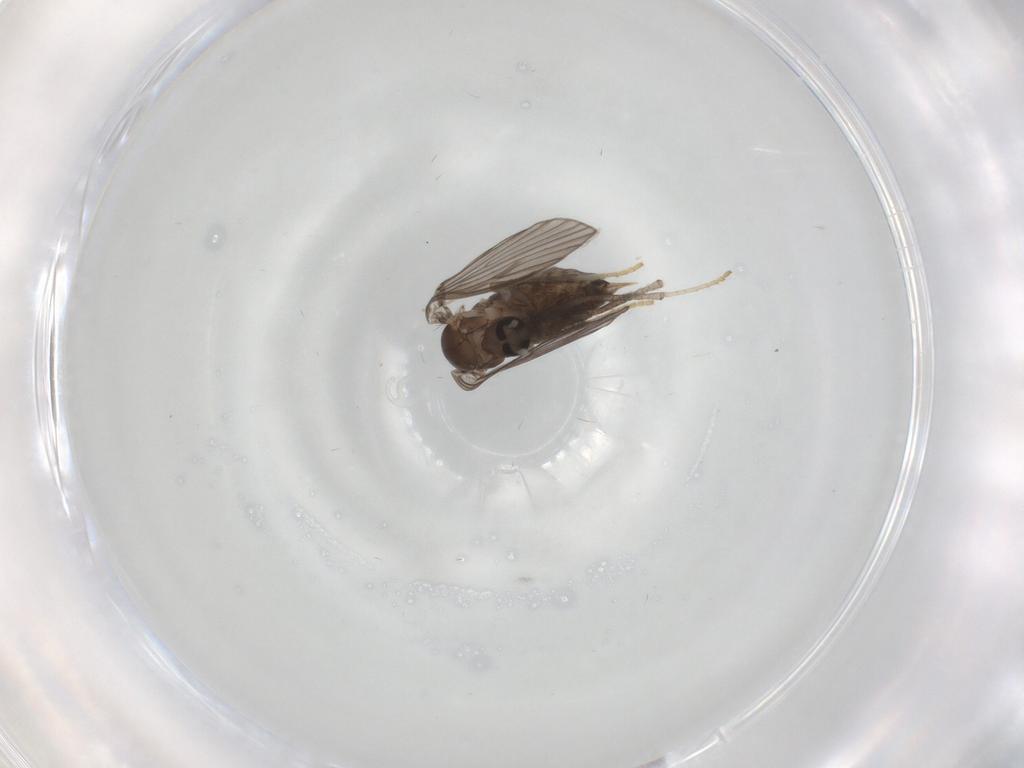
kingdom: Animalia
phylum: Arthropoda
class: Insecta
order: Diptera
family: Psychodidae
